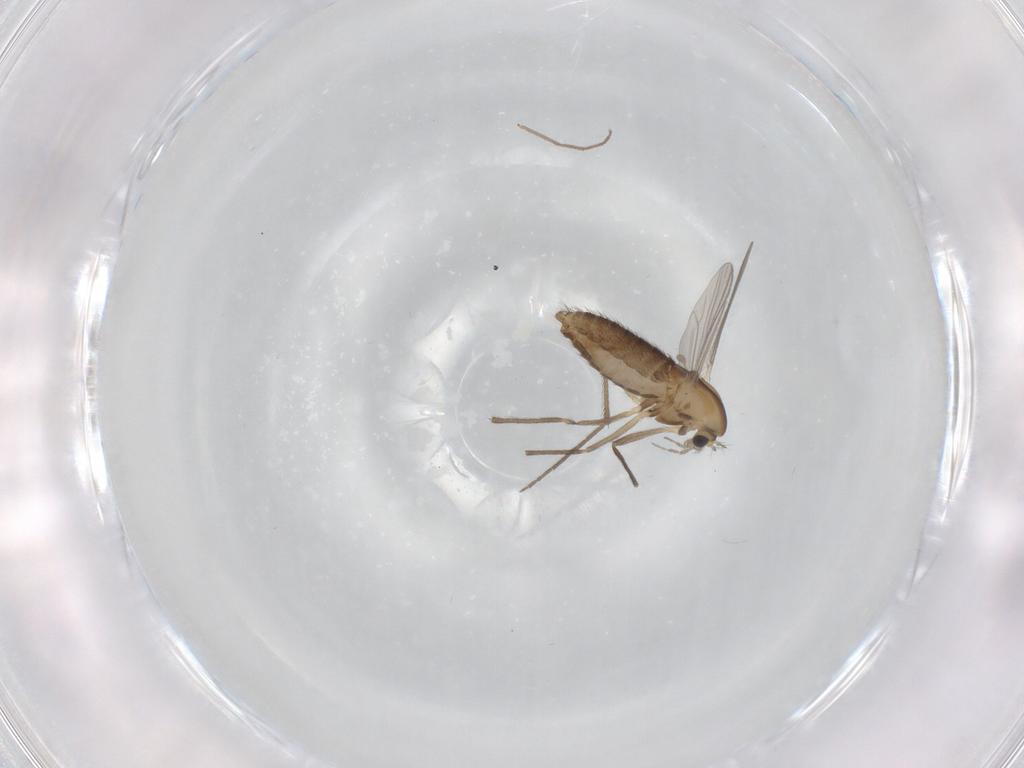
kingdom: Animalia
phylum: Arthropoda
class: Insecta
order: Diptera
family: Chironomidae
